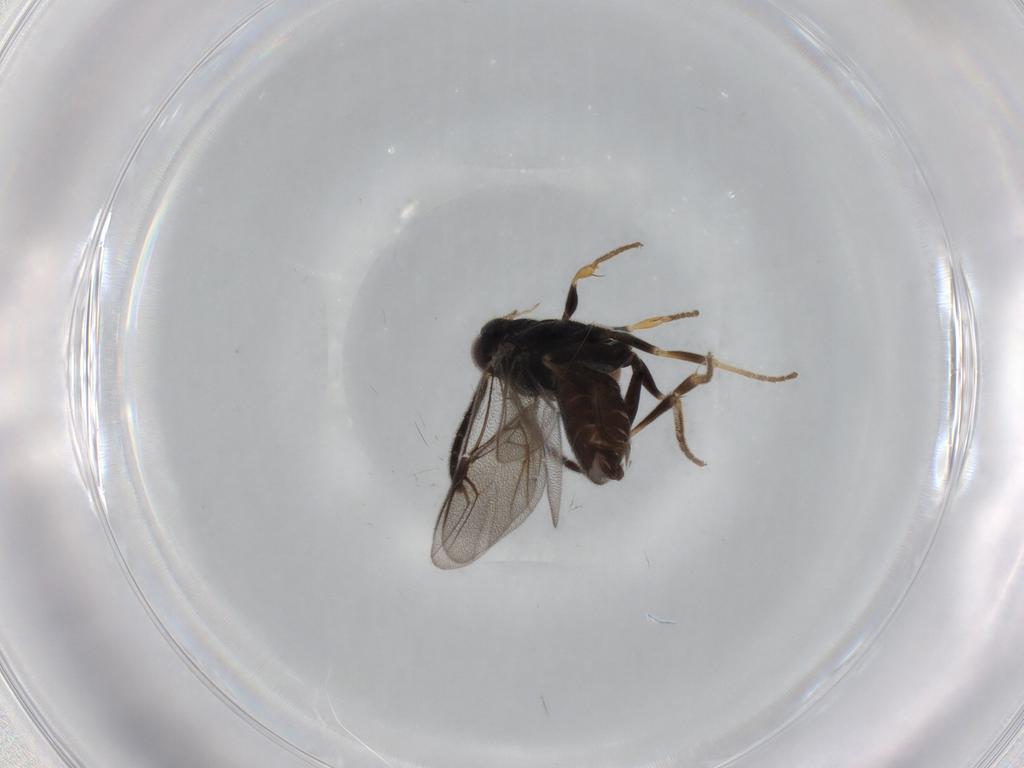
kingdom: Animalia
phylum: Arthropoda
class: Insecta
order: Hymenoptera
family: Dryinidae
